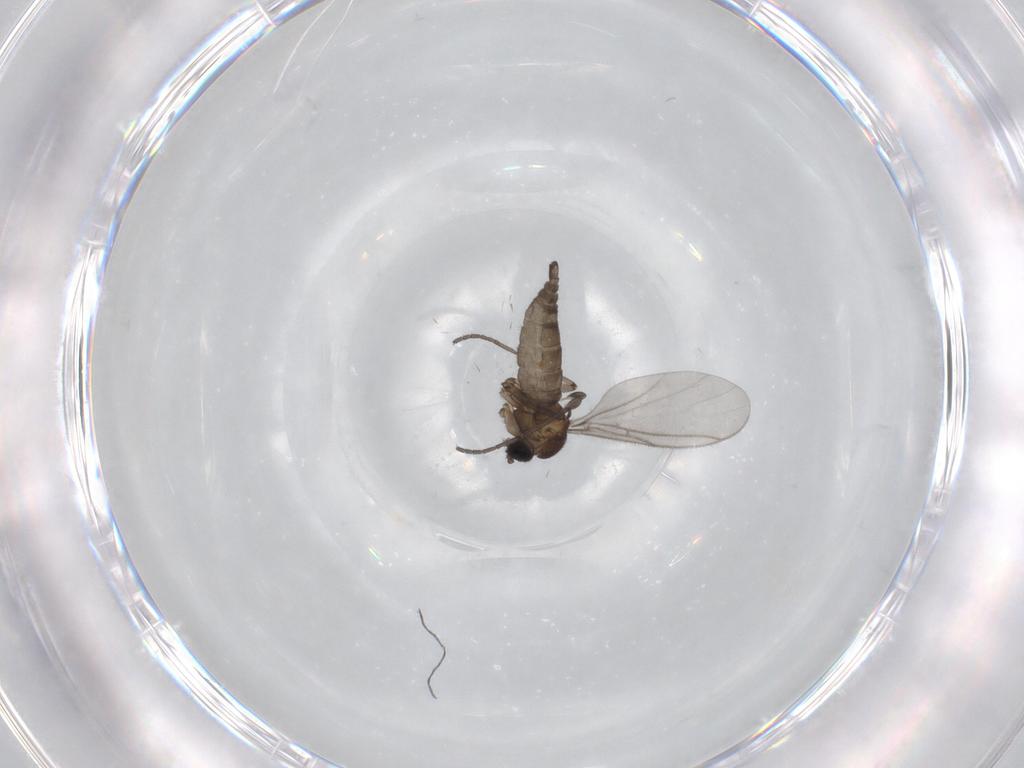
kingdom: Animalia
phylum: Arthropoda
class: Insecta
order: Diptera
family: Sciaridae
